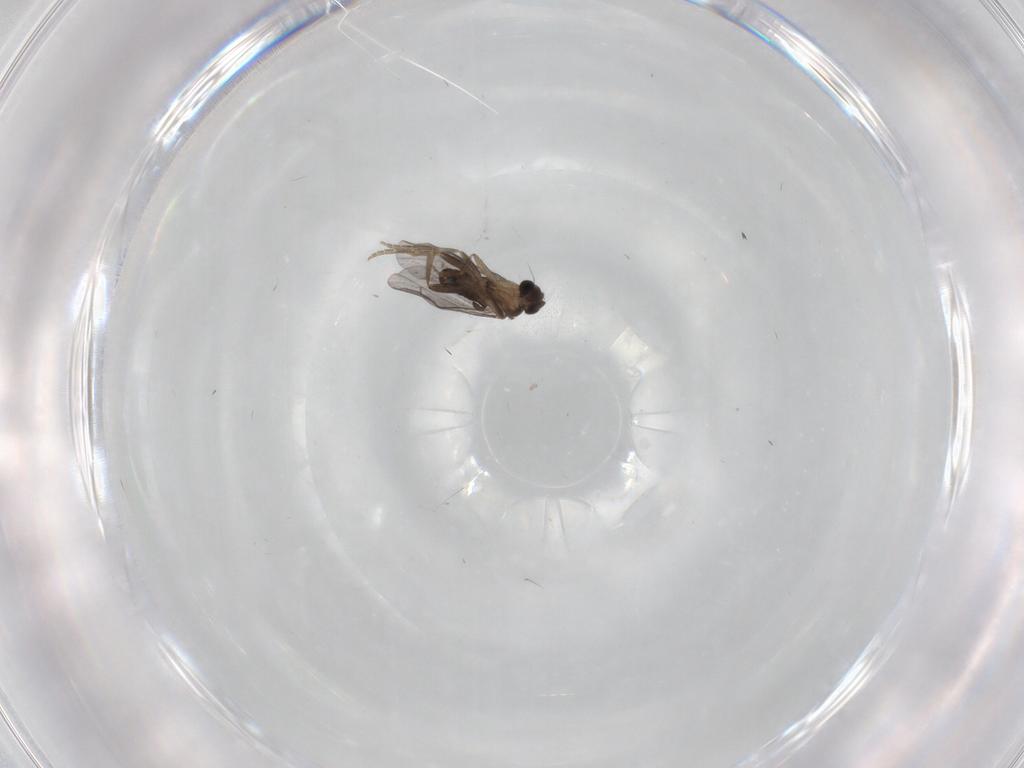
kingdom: Animalia
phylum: Arthropoda
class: Insecta
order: Diptera
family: Phoridae
